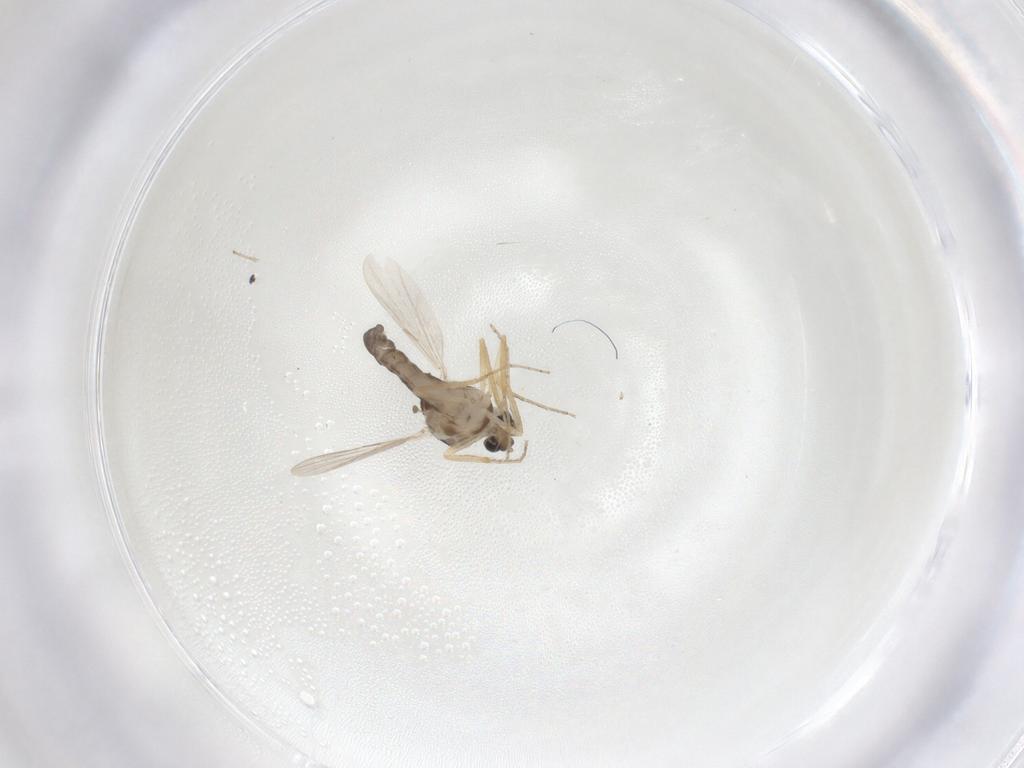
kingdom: Animalia
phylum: Arthropoda
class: Insecta
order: Diptera
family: Ceratopogonidae
